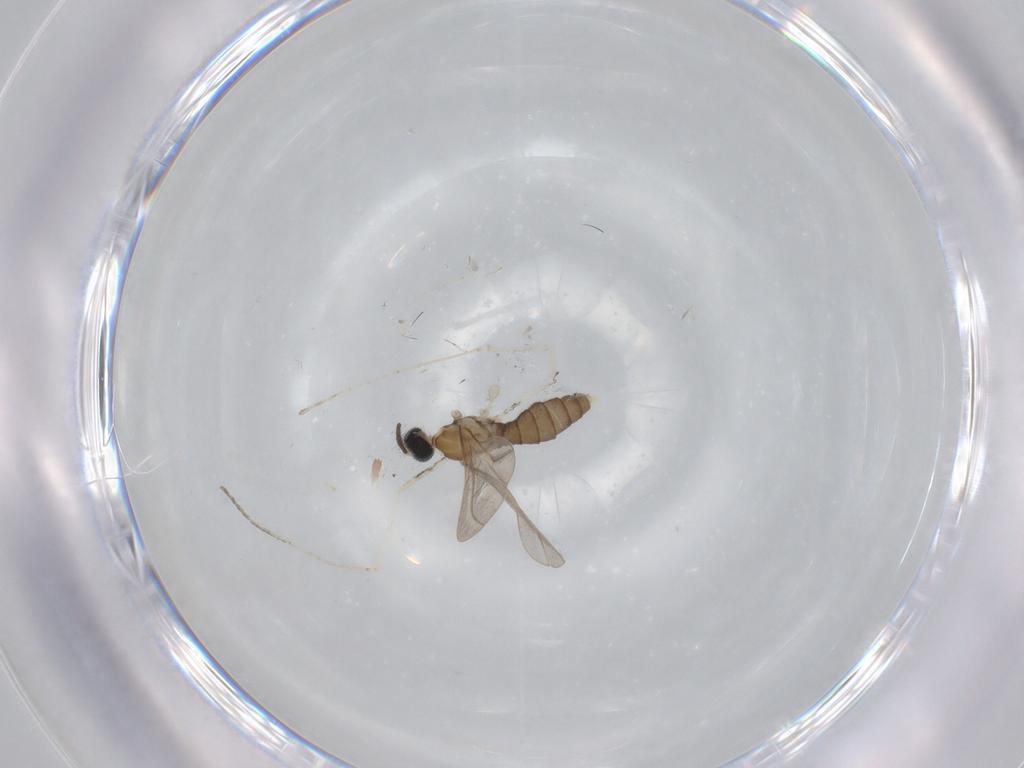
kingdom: Animalia
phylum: Arthropoda
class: Insecta
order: Diptera
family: Cecidomyiidae
